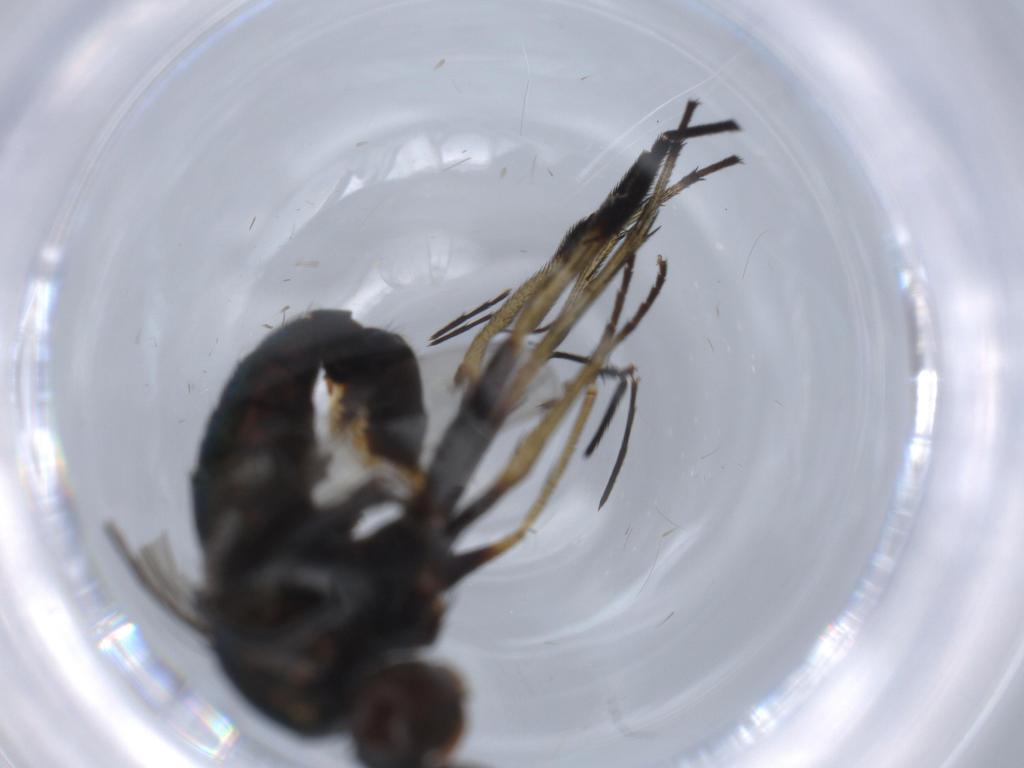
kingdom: Animalia
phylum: Arthropoda
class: Insecta
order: Diptera
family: Dolichopodidae
